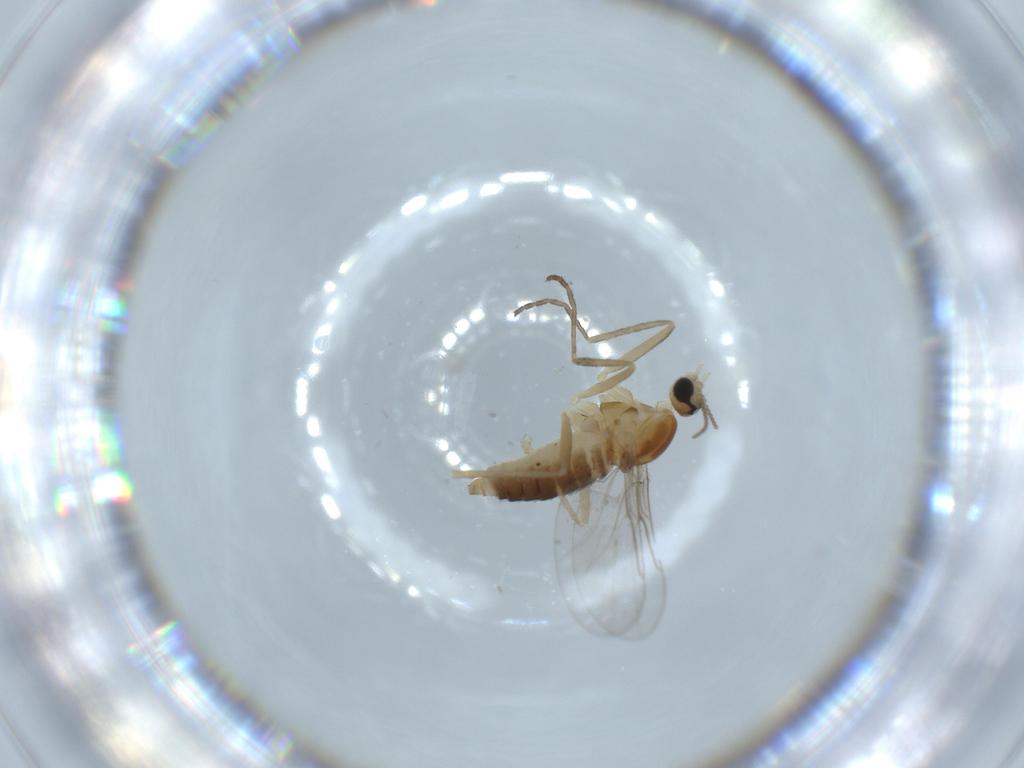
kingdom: Animalia
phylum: Arthropoda
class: Insecta
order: Diptera
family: Cecidomyiidae
